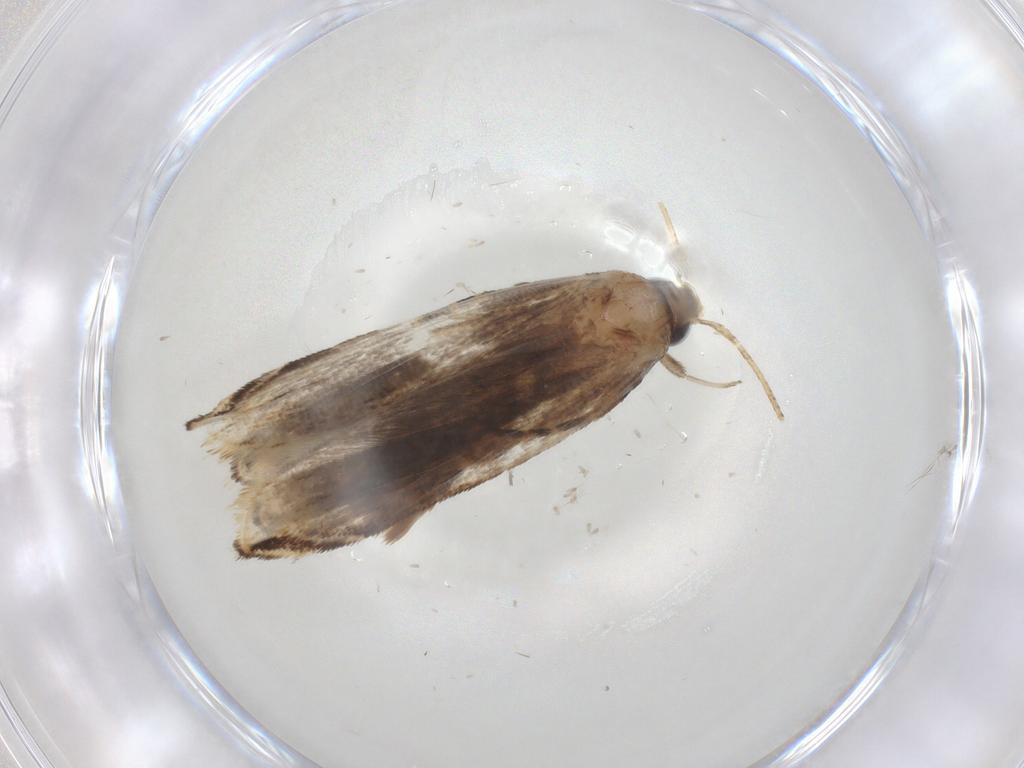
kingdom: Animalia
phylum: Arthropoda
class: Insecta
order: Lepidoptera
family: Gelechiidae
